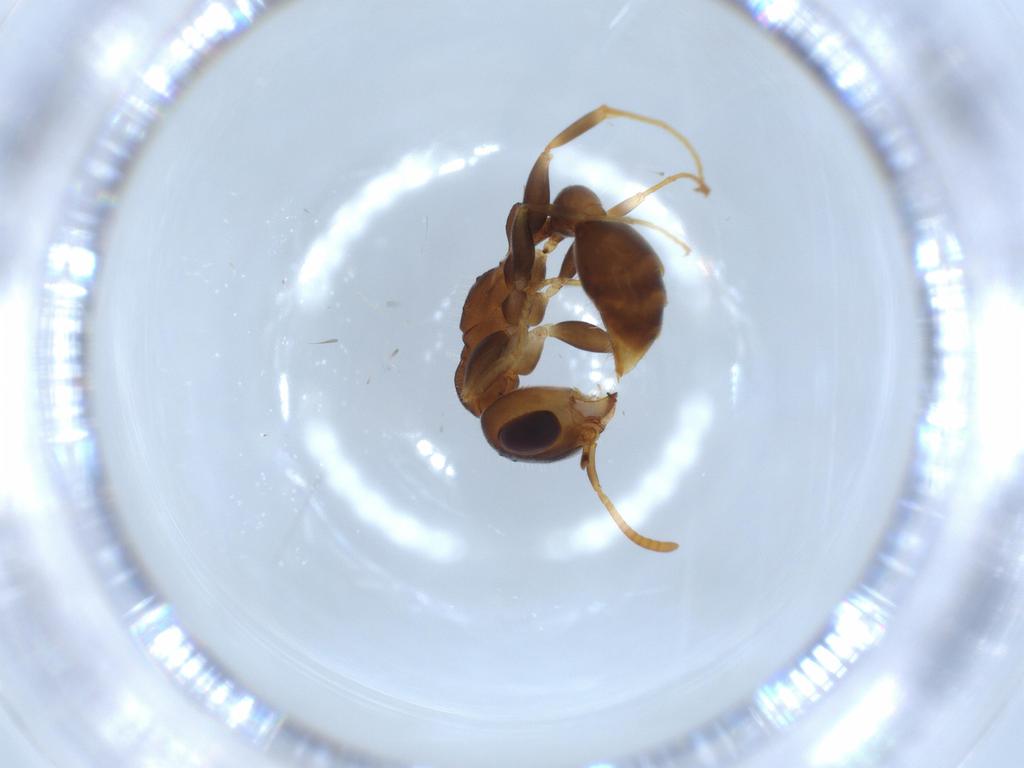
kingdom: Animalia
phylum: Arthropoda
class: Insecta
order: Hymenoptera
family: Formicidae
